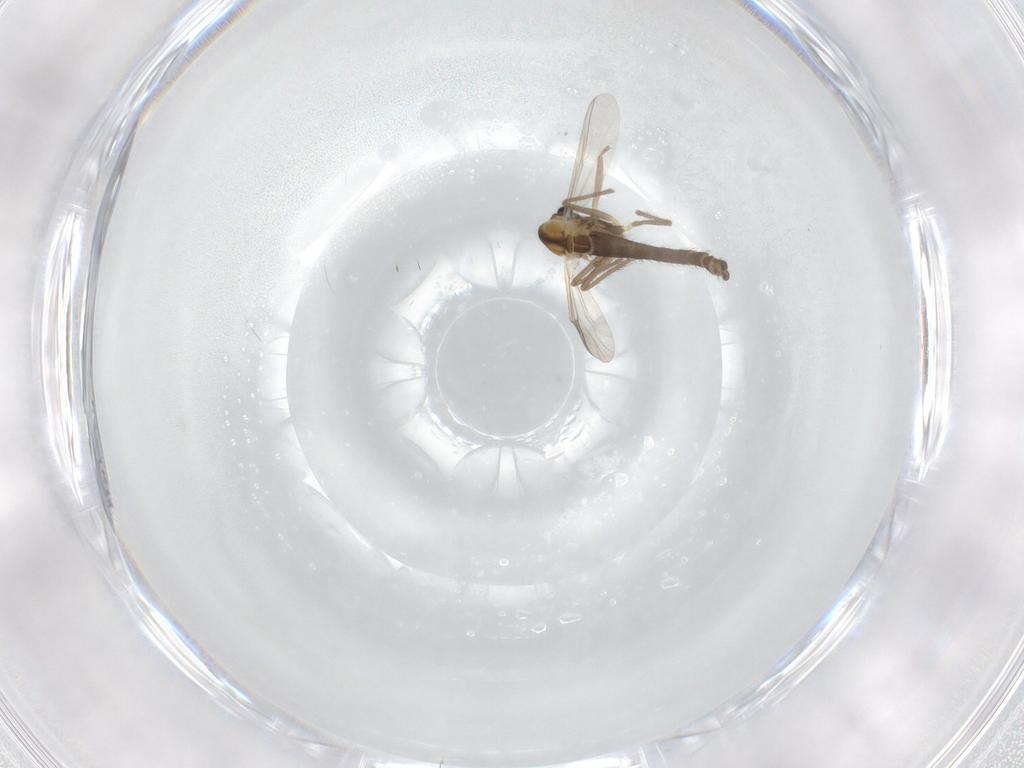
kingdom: Animalia
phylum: Arthropoda
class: Insecta
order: Diptera
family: Chironomidae
